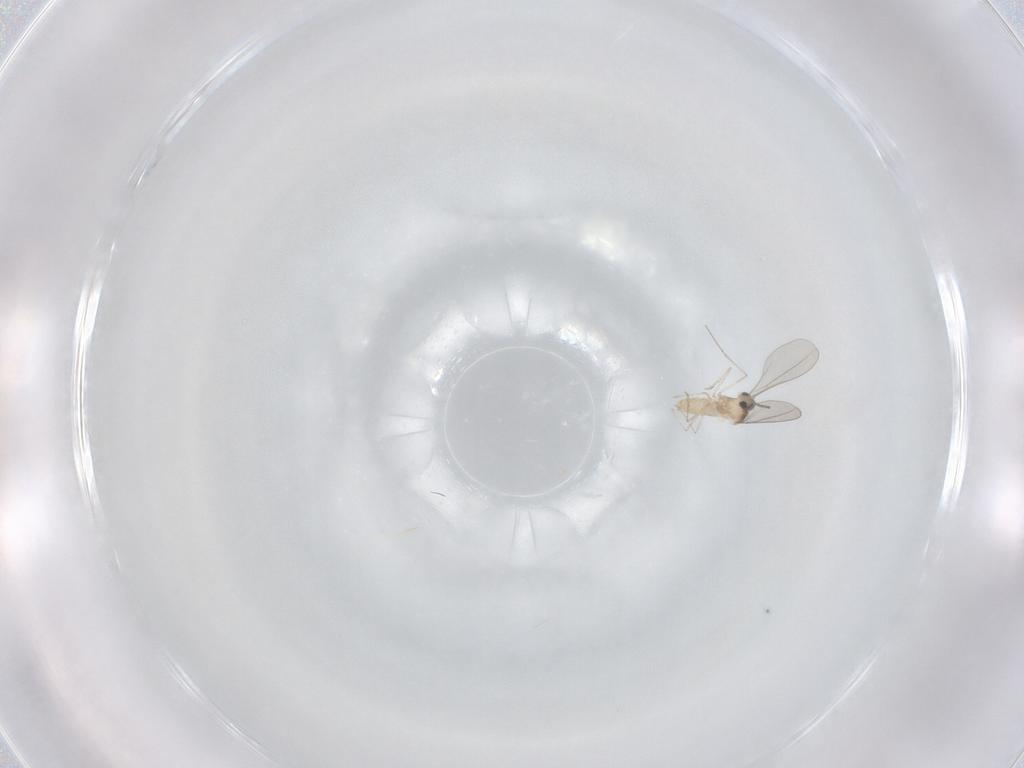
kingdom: Animalia
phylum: Arthropoda
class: Insecta
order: Diptera
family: Cecidomyiidae
